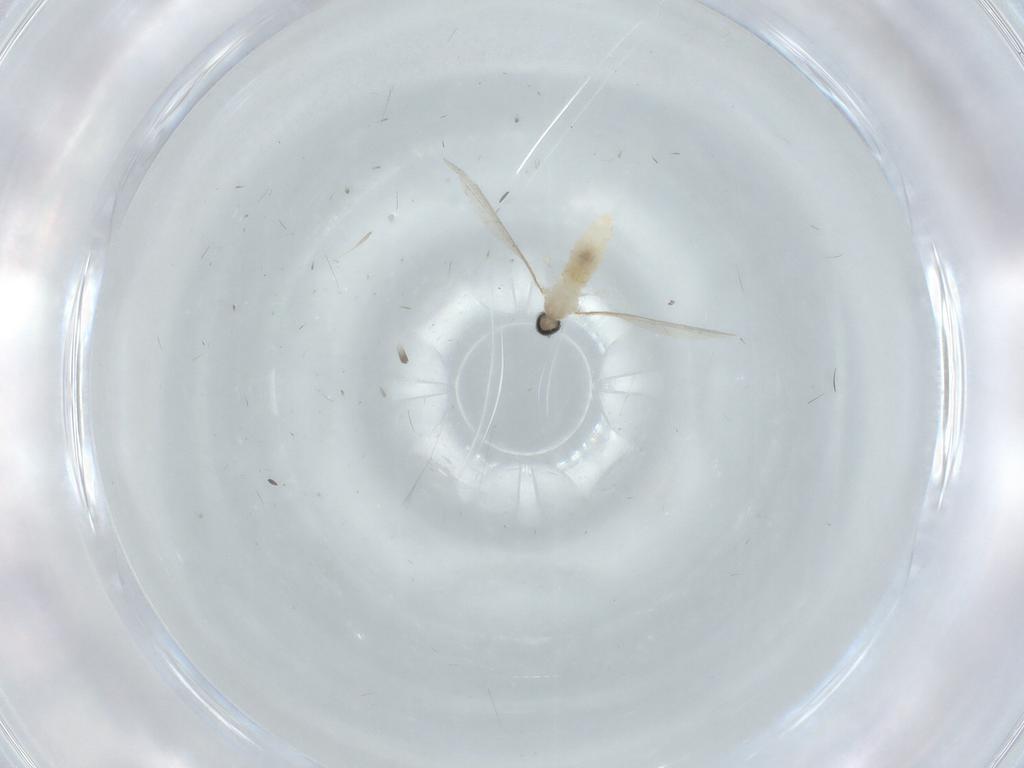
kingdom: Animalia
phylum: Arthropoda
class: Insecta
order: Diptera
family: Cecidomyiidae
